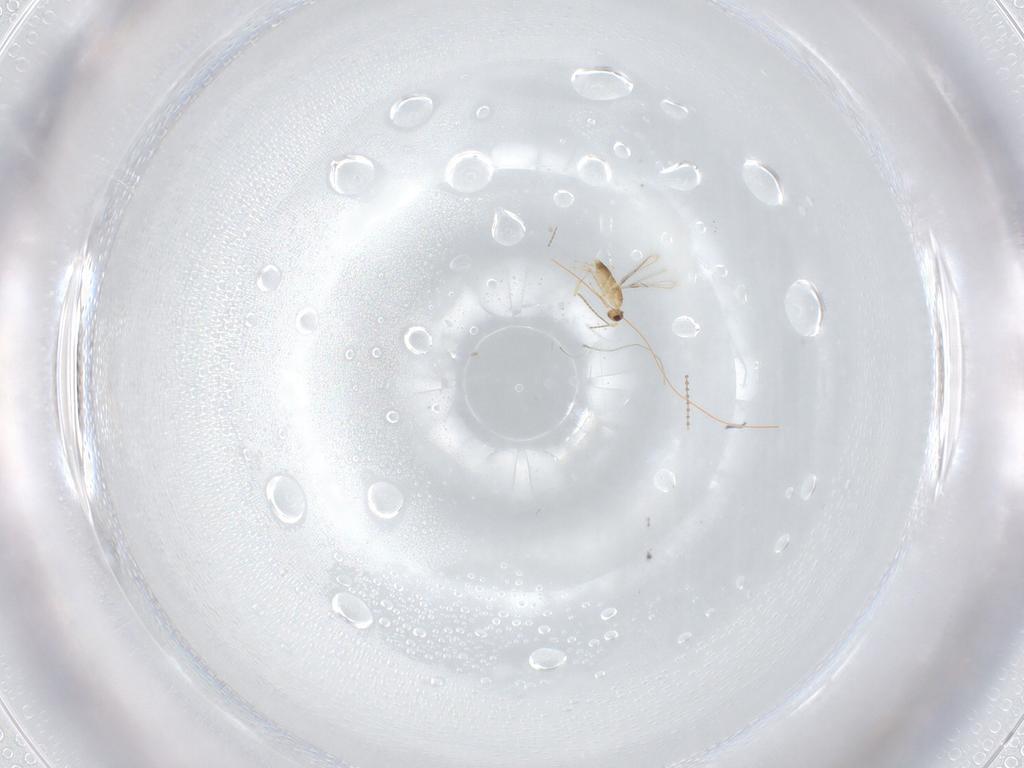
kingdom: Animalia
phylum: Arthropoda
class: Insecta
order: Hymenoptera
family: Mymaridae
